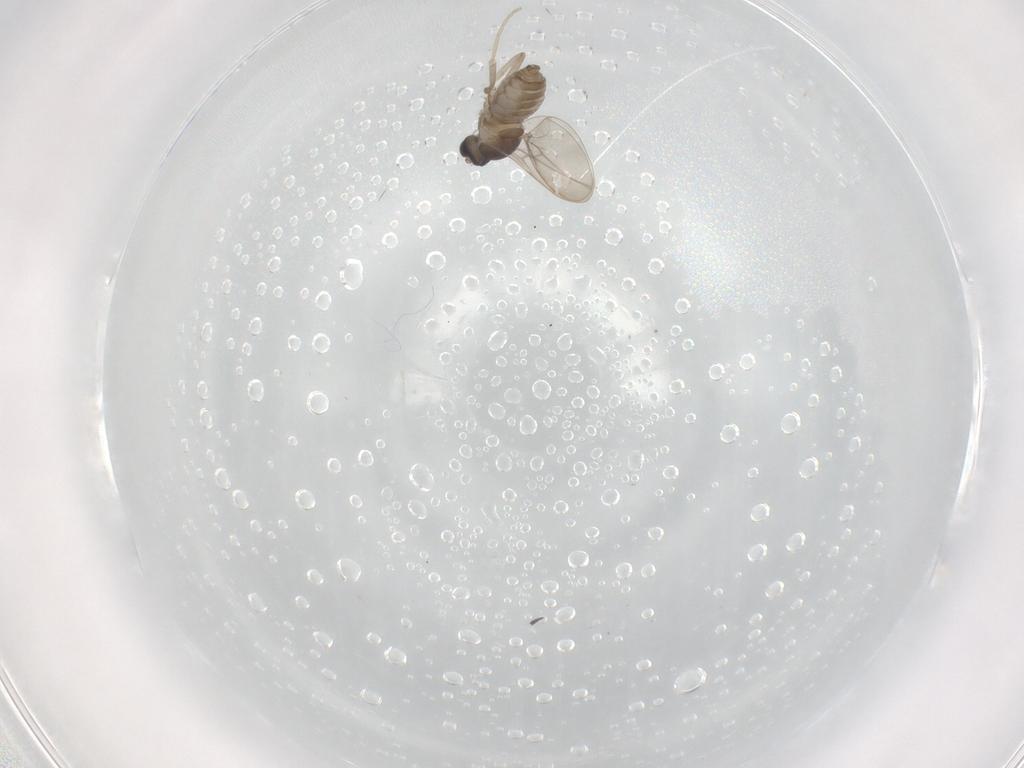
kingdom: Animalia
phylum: Arthropoda
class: Insecta
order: Diptera
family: Cecidomyiidae
